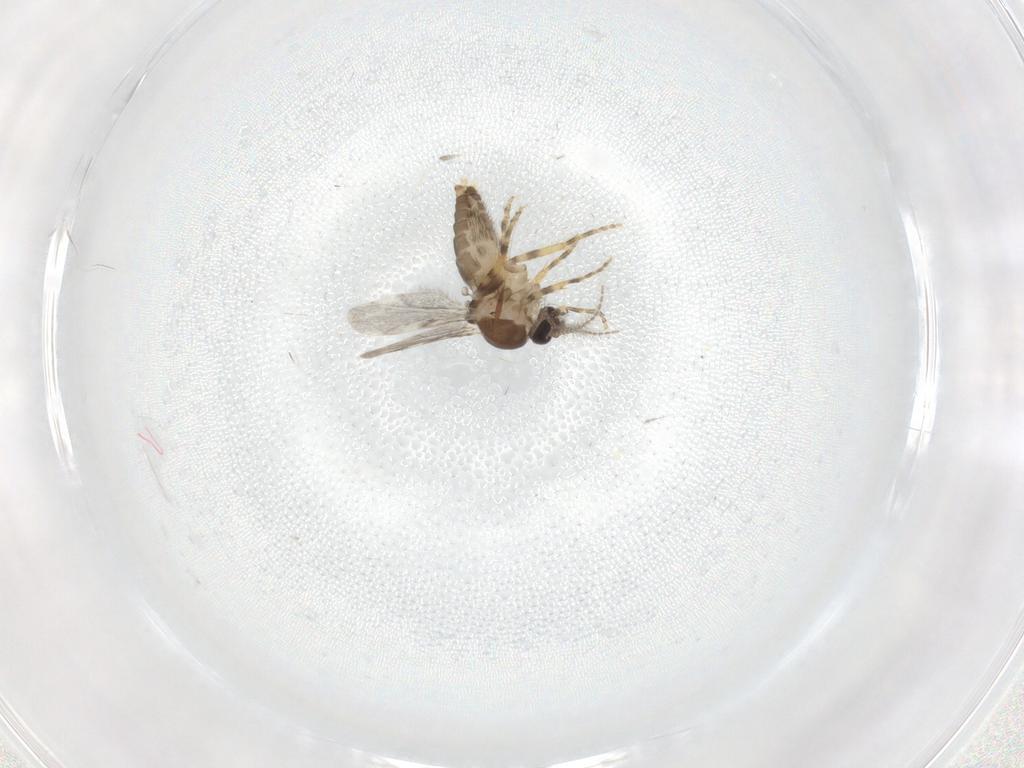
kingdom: Animalia
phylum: Arthropoda
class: Insecta
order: Diptera
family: Ceratopogonidae
